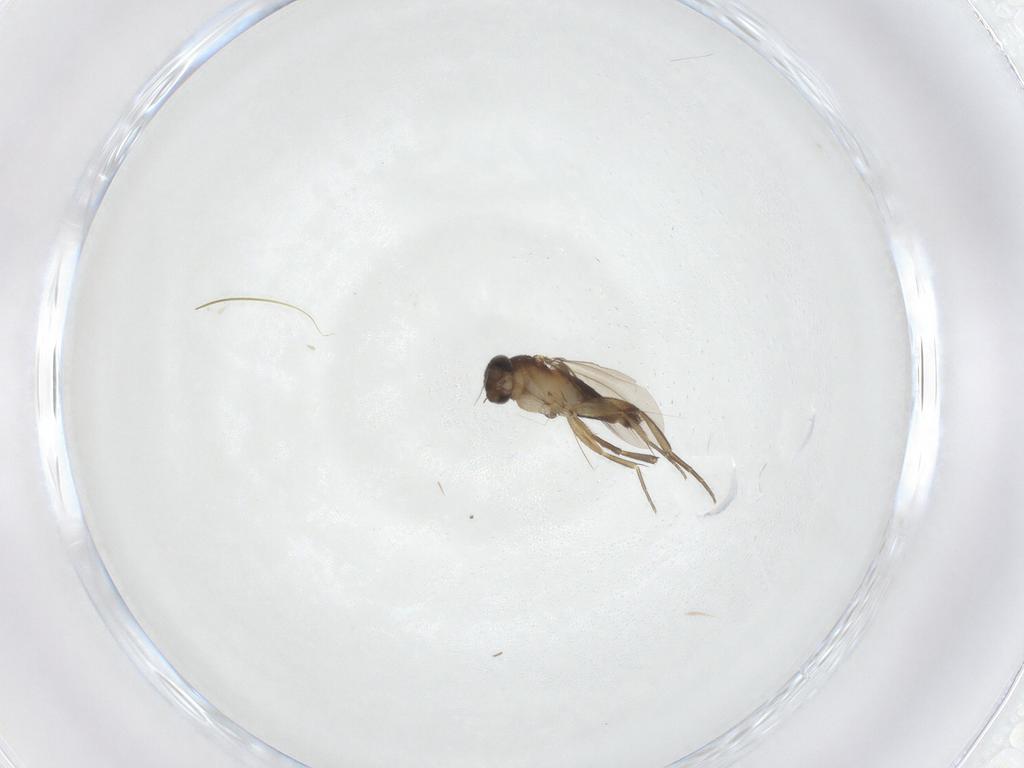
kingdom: Animalia
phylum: Arthropoda
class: Insecta
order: Diptera
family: Phoridae
